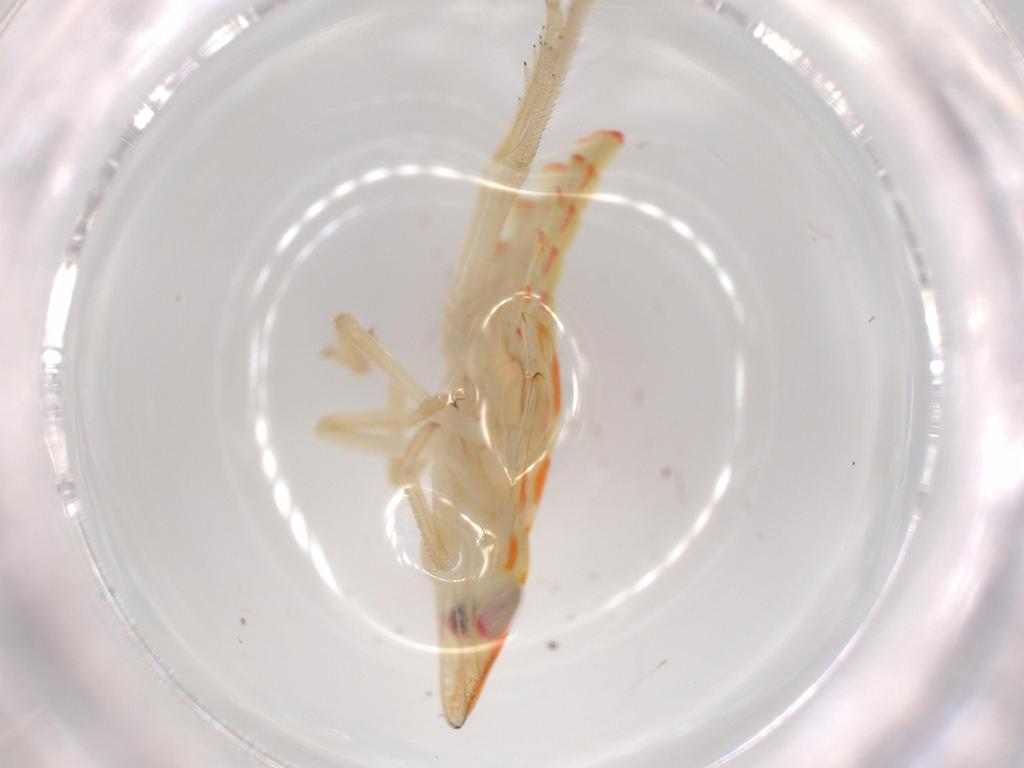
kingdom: Animalia
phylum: Arthropoda
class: Insecta
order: Hemiptera
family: Tropiduchidae
